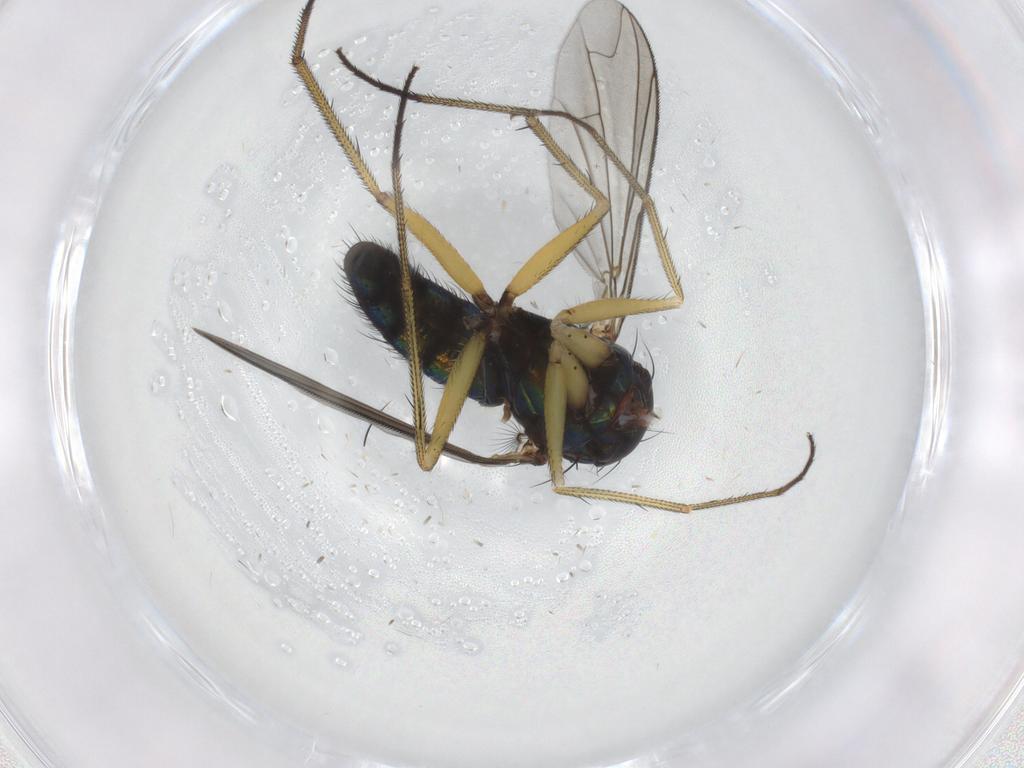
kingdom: Animalia
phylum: Arthropoda
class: Insecta
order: Diptera
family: Dolichopodidae
